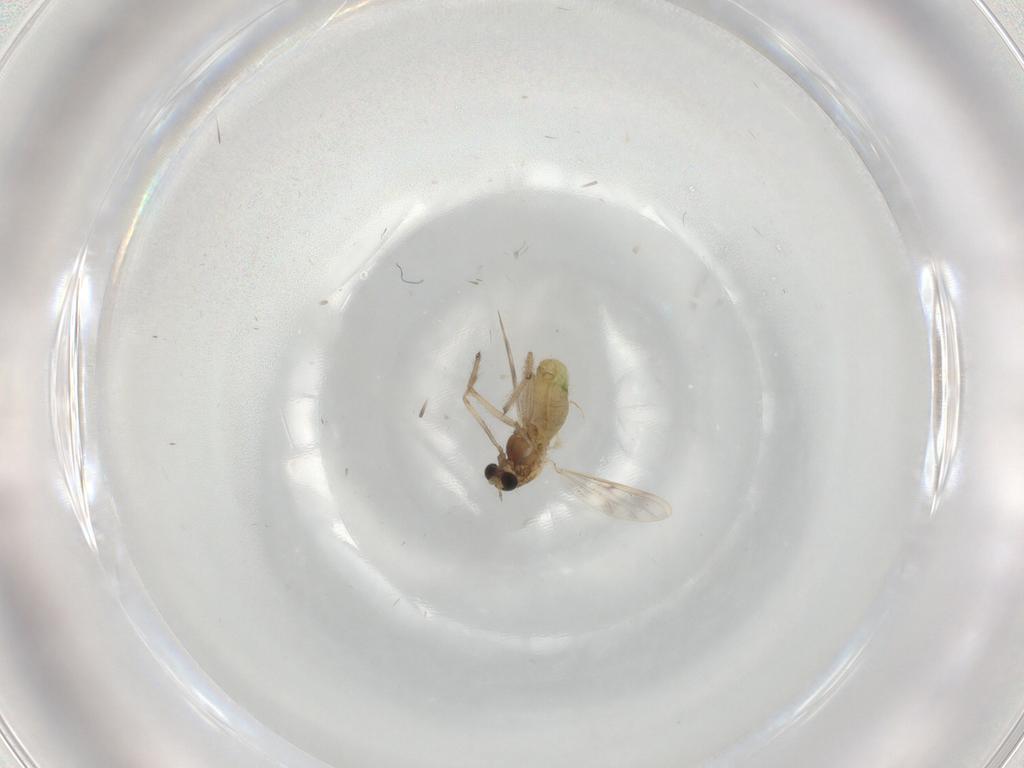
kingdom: Animalia
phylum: Arthropoda
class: Insecta
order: Diptera
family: Chironomidae
